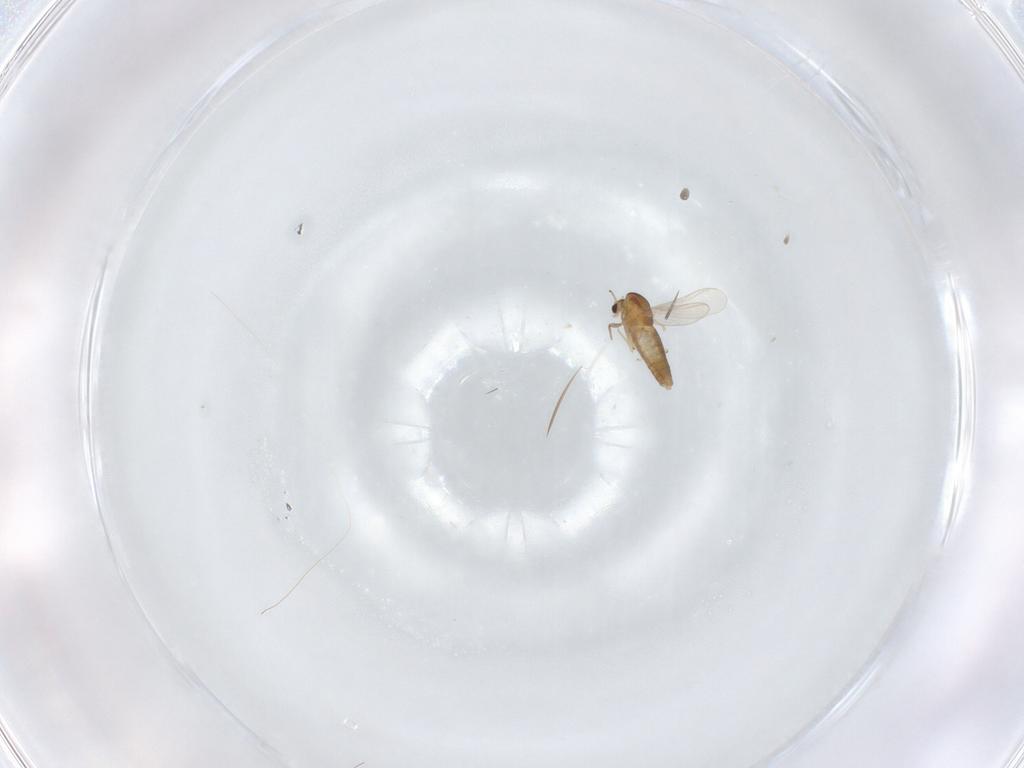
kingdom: Animalia
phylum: Arthropoda
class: Insecta
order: Diptera
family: Chironomidae
